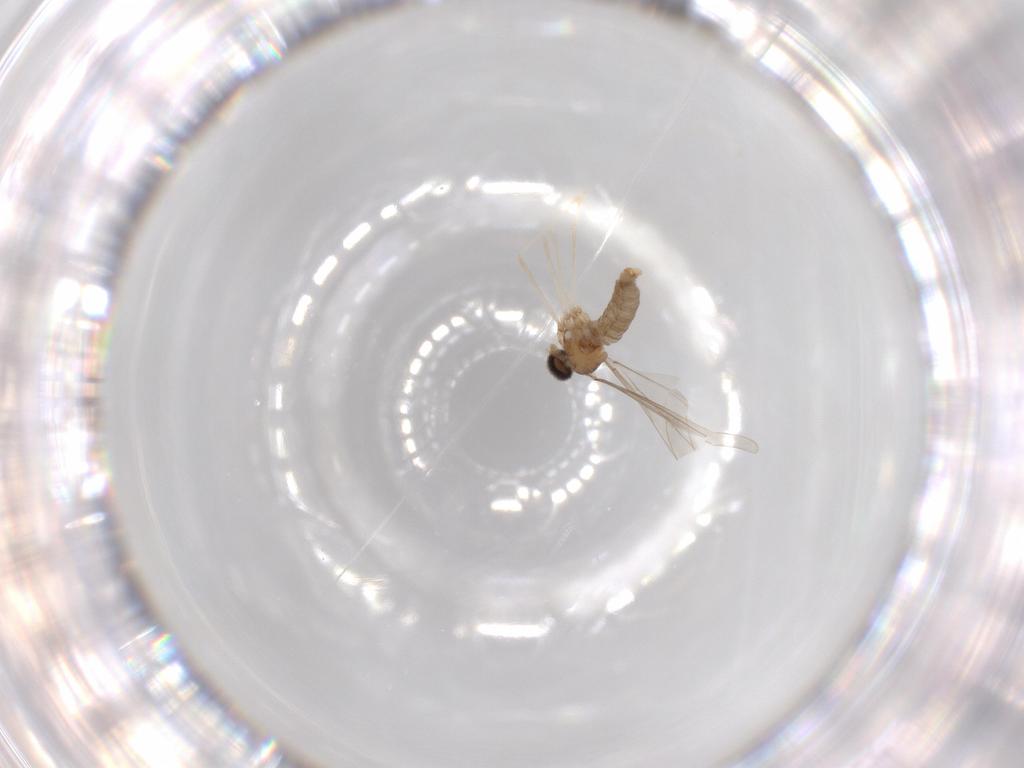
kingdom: Animalia
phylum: Arthropoda
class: Insecta
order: Diptera
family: Cecidomyiidae
